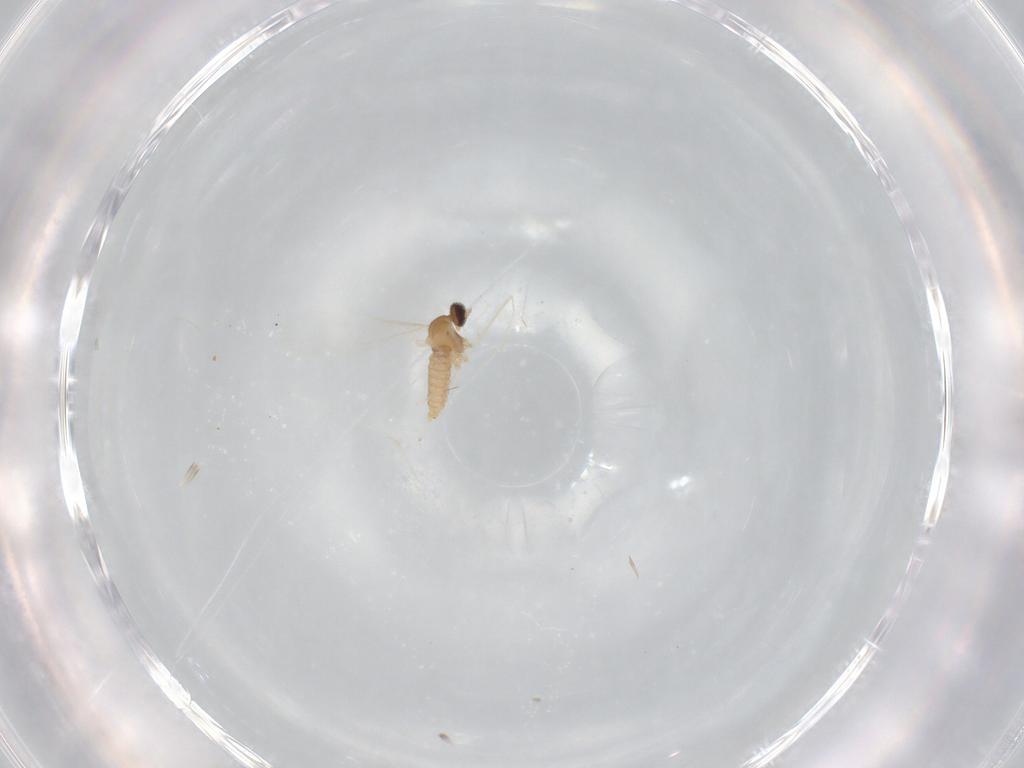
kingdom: Animalia
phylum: Arthropoda
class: Insecta
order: Diptera
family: Cecidomyiidae
